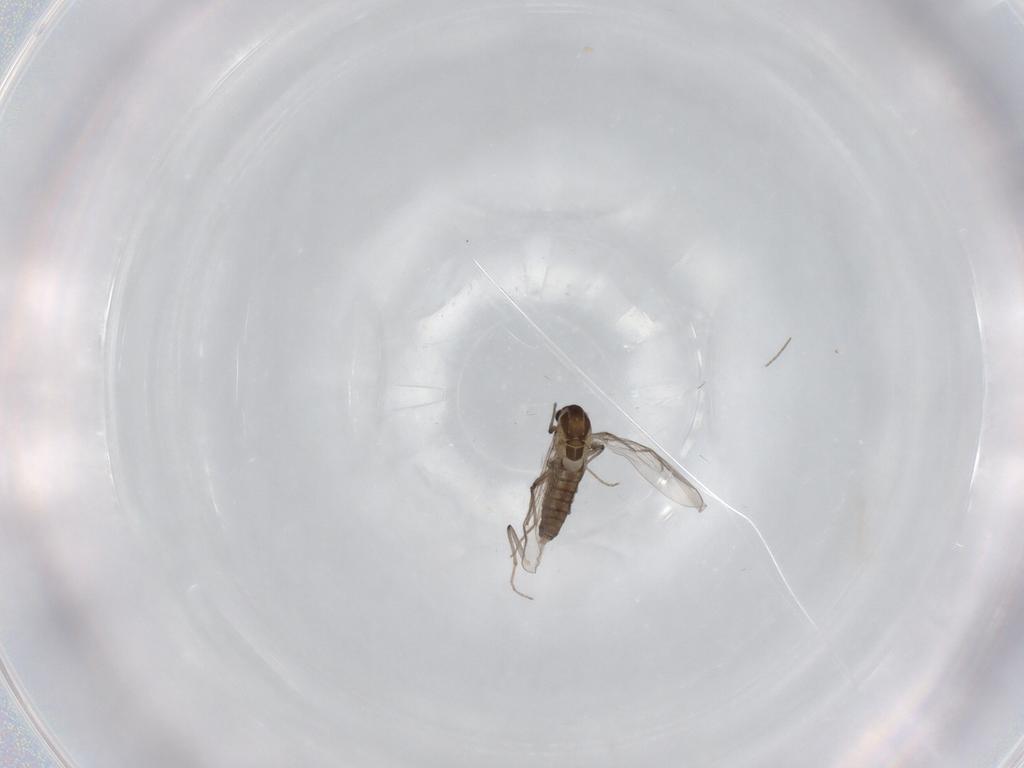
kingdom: Animalia
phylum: Arthropoda
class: Insecta
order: Diptera
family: Chironomidae
